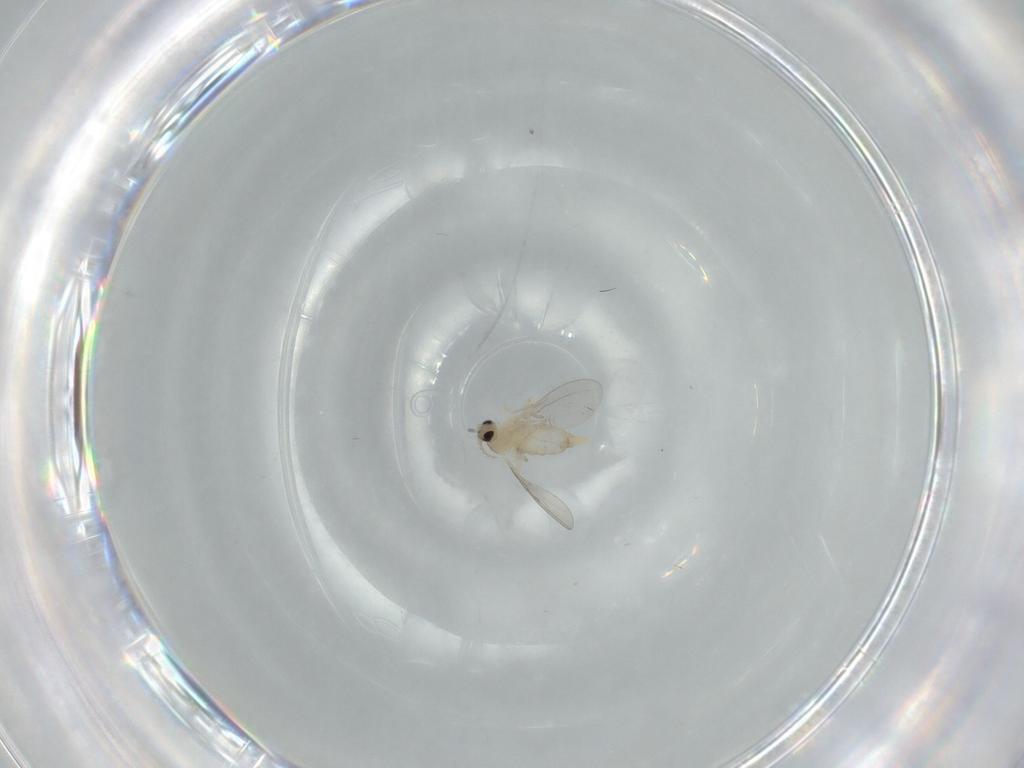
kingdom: Animalia
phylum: Arthropoda
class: Insecta
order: Diptera
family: Cecidomyiidae
